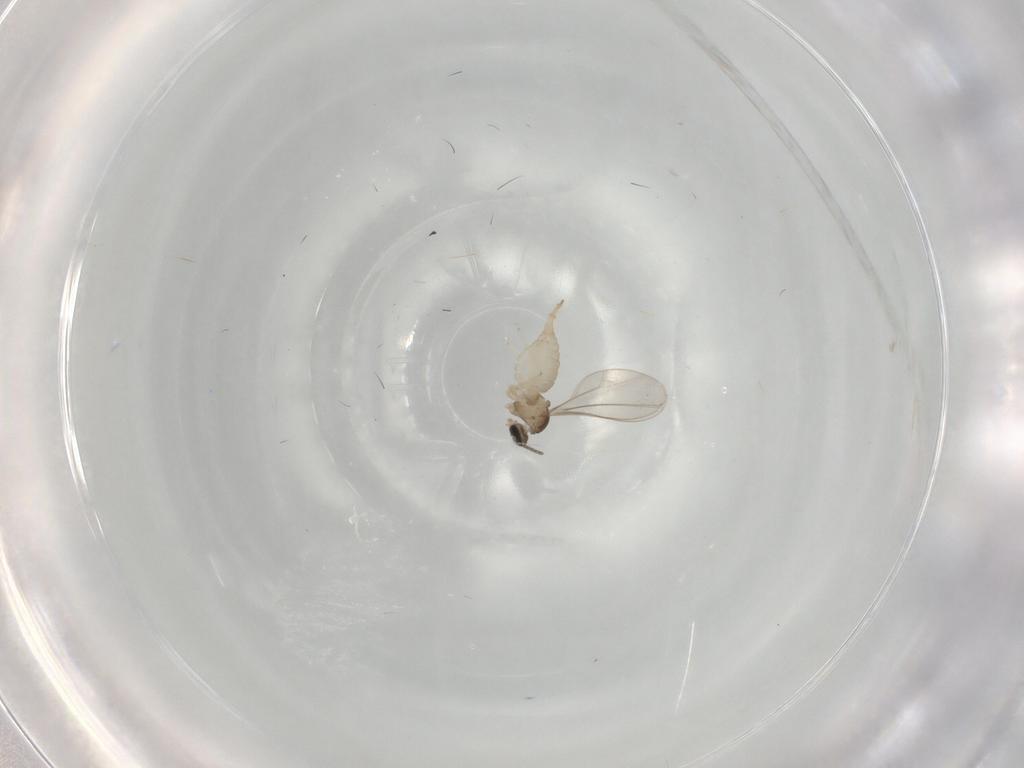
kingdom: Animalia
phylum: Arthropoda
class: Insecta
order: Diptera
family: Chironomidae
